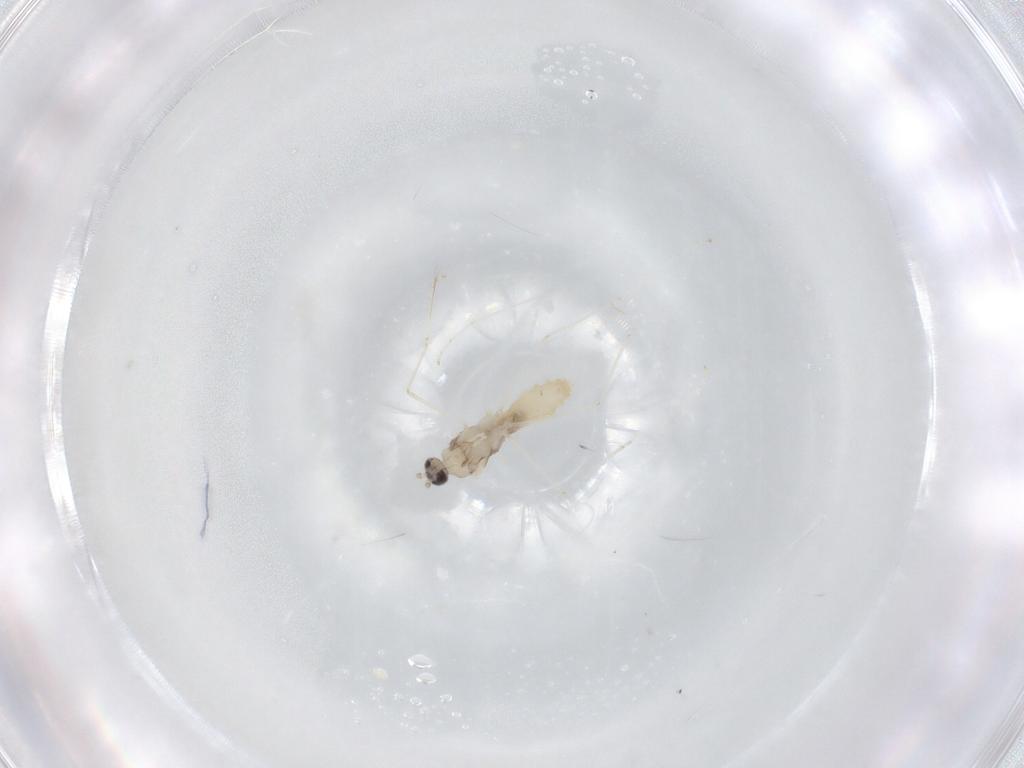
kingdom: Animalia
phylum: Arthropoda
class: Insecta
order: Diptera
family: Cecidomyiidae
